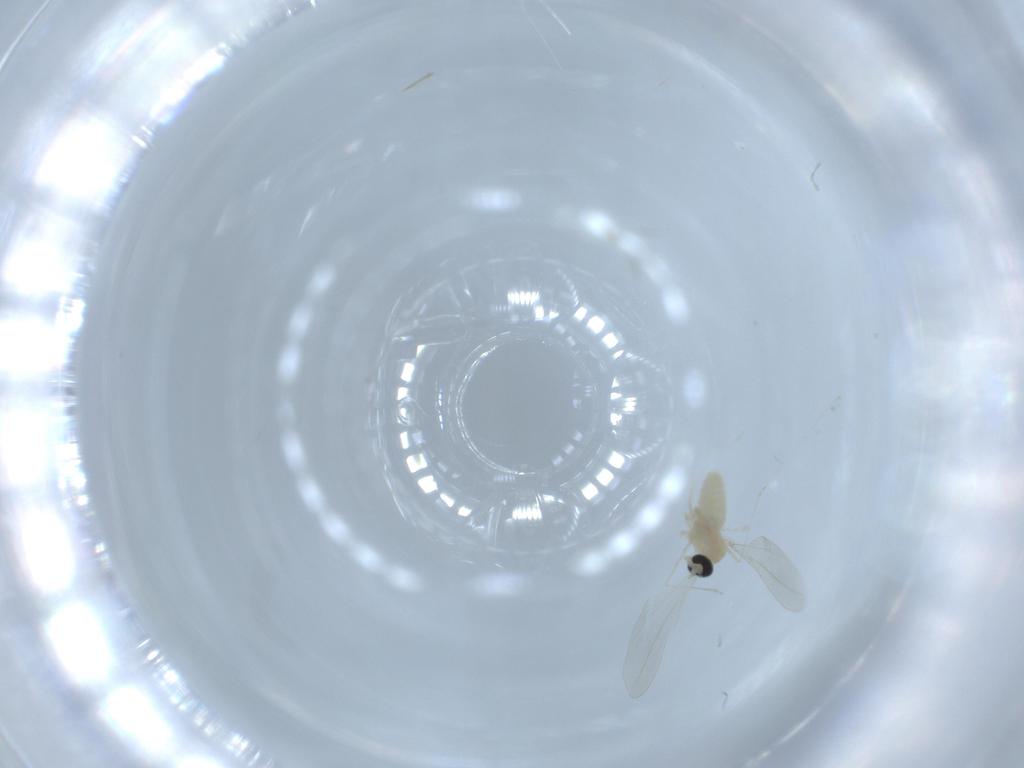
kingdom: Animalia
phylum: Arthropoda
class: Insecta
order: Diptera
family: Cecidomyiidae
